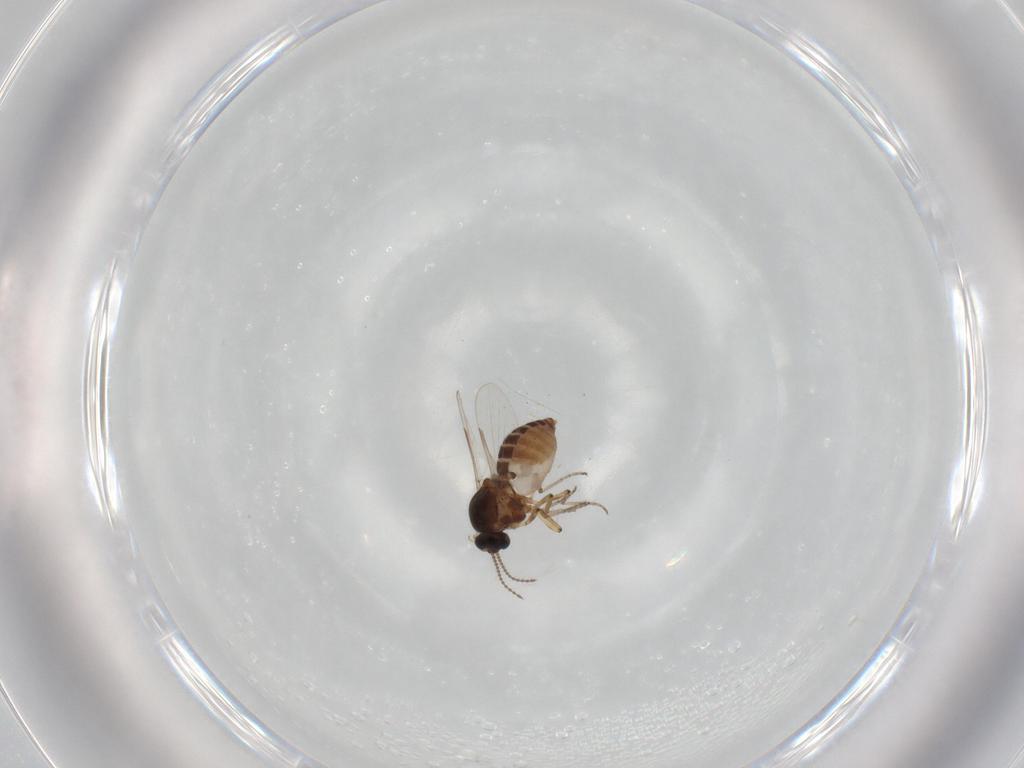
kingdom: Animalia
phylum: Arthropoda
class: Insecta
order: Diptera
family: Ceratopogonidae
